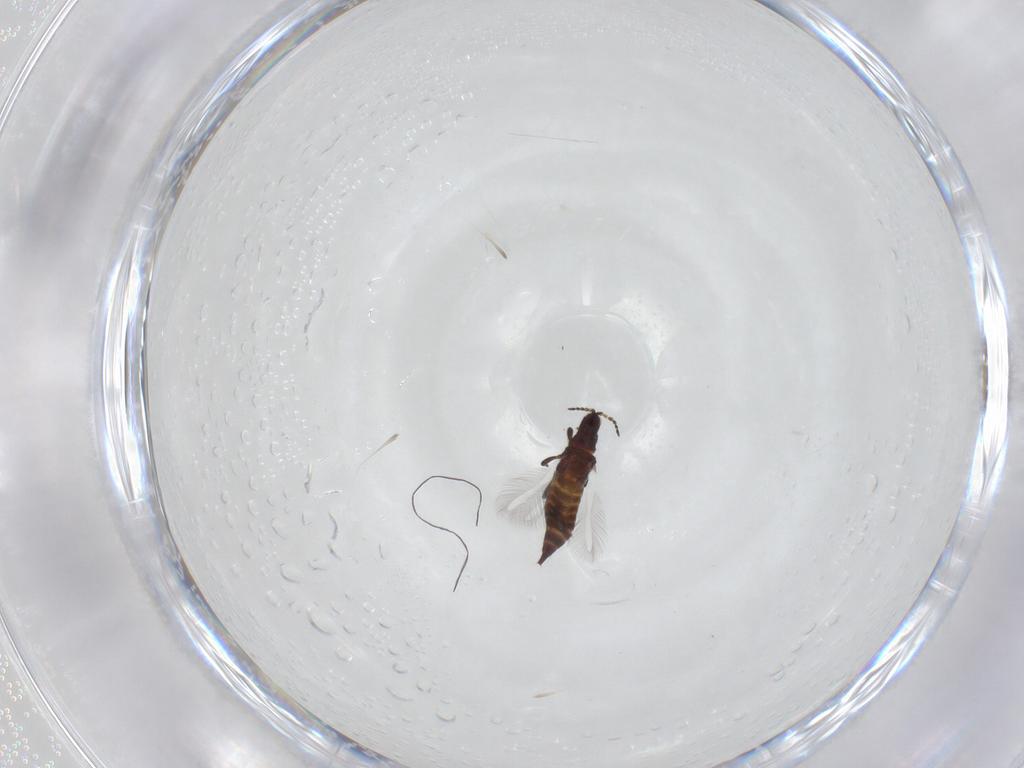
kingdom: Animalia
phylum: Arthropoda
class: Insecta
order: Thysanoptera
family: Phlaeothripidae
